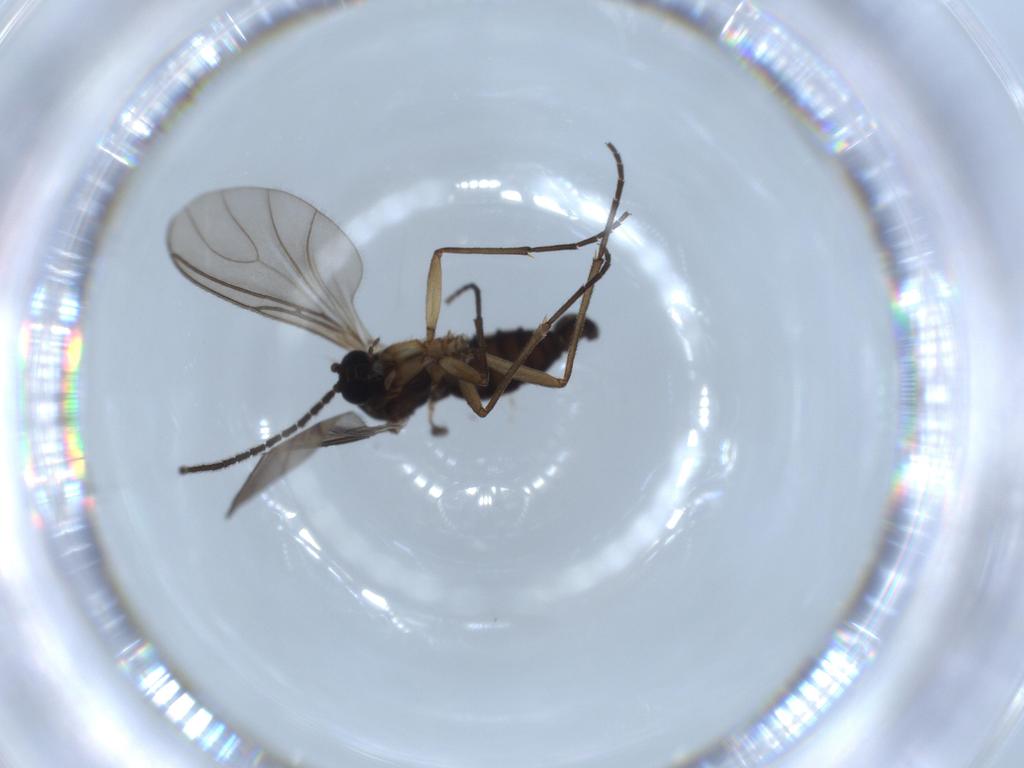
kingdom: Animalia
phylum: Arthropoda
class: Insecta
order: Diptera
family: Sciaridae
